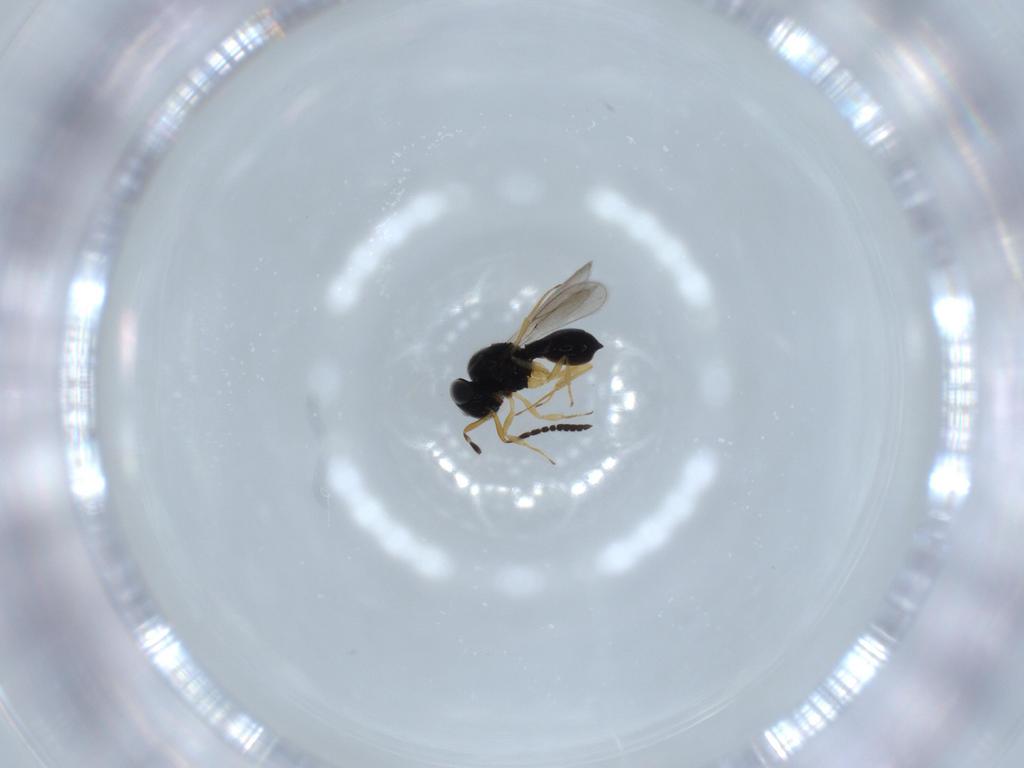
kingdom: Animalia
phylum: Arthropoda
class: Insecta
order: Hymenoptera
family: Scelionidae
